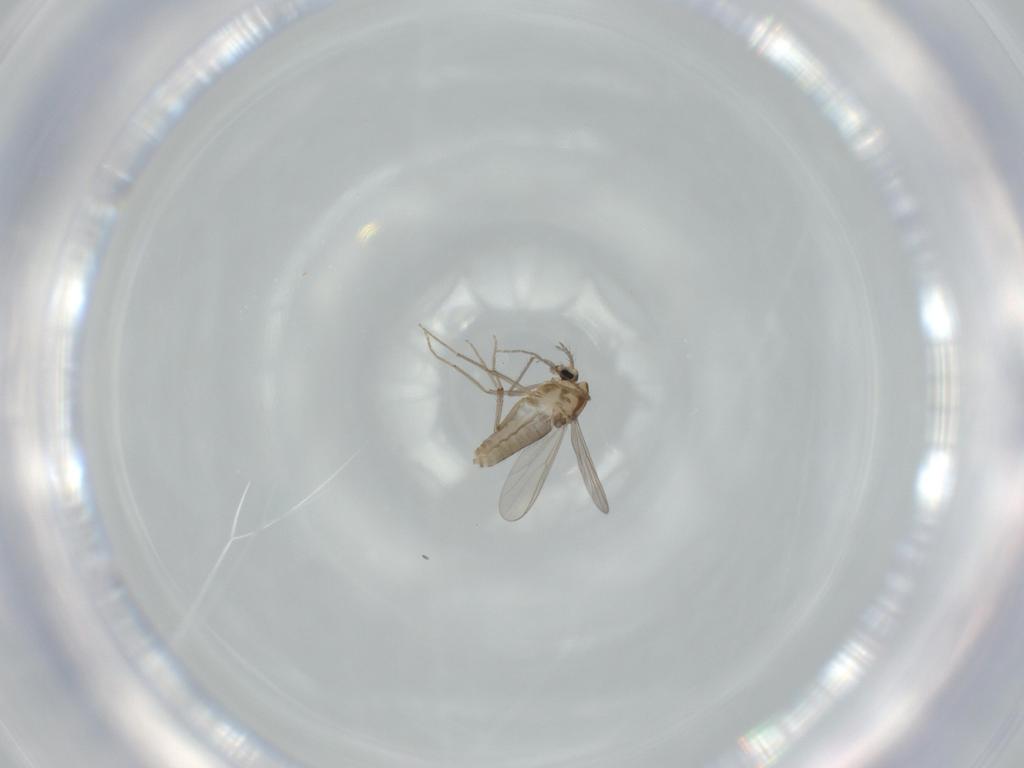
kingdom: Animalia
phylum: Arthropoda
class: Insecta
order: Diptera
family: Chironomidae
